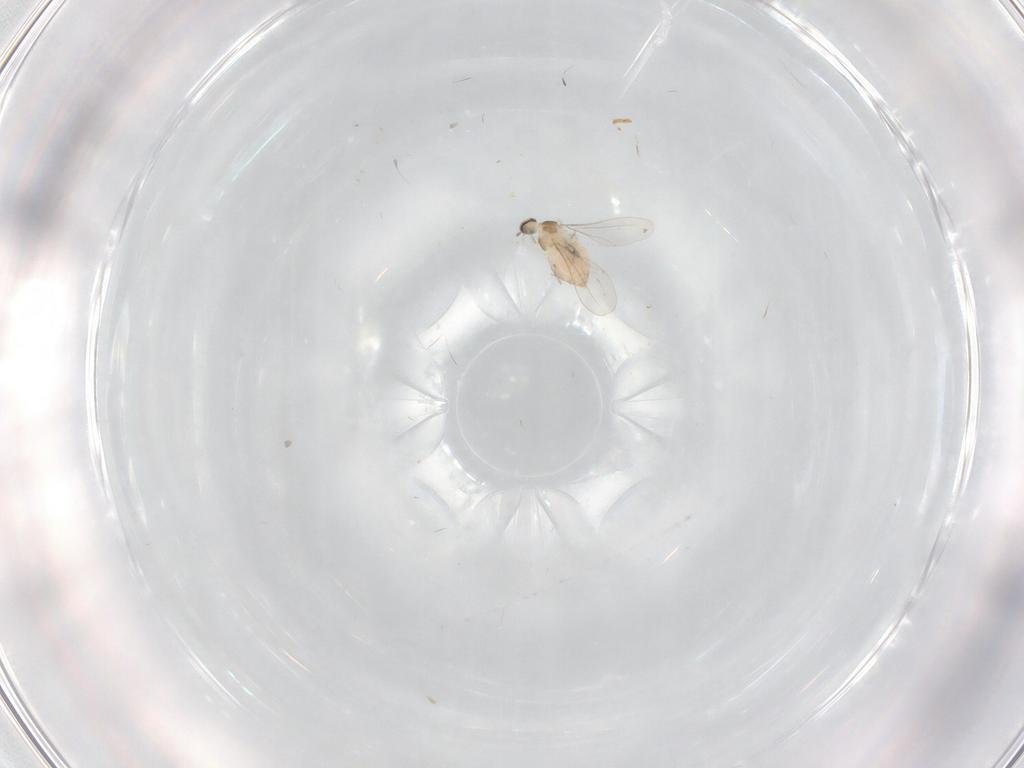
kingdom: Animalia
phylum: Arthropoda
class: Insecta
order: Diptera
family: Cecidomyiidae
